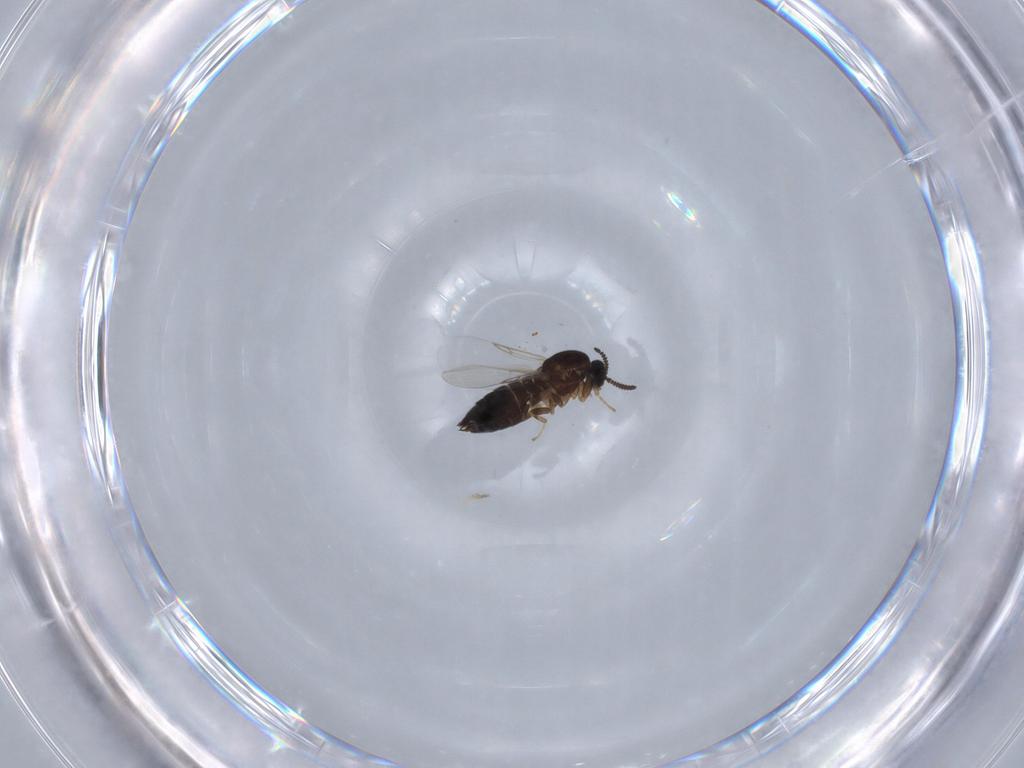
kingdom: Animalia
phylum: Arthropoda
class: Insecta
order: Diptera
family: Scatopsidae
